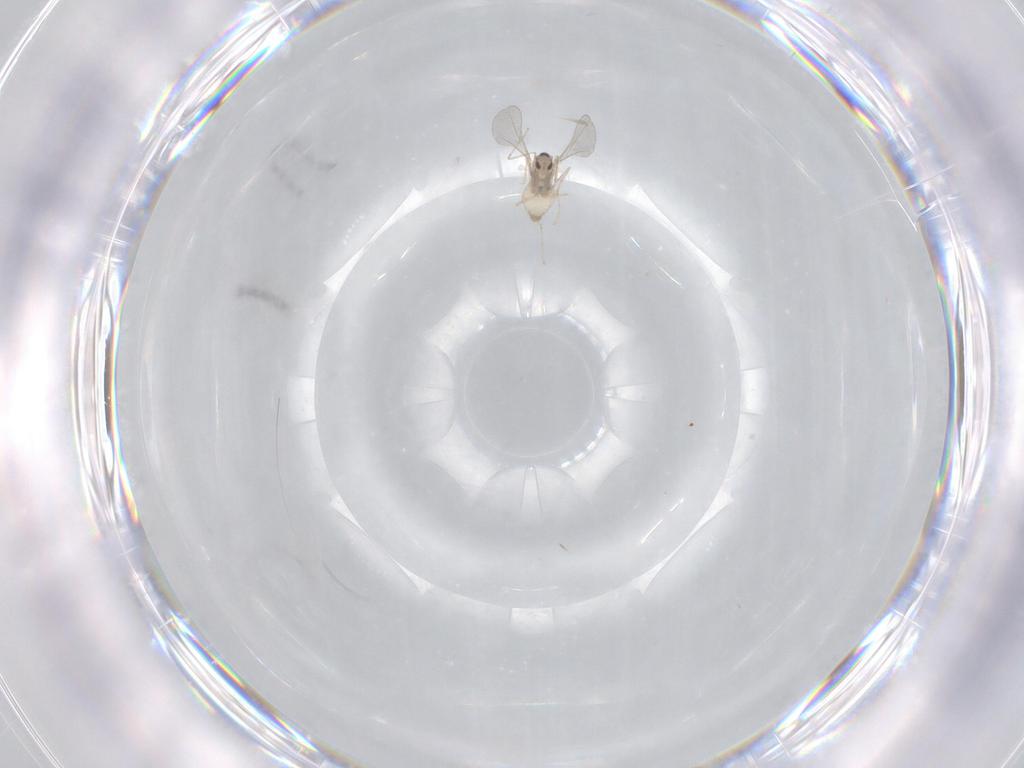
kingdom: Animalia
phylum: Arthropoda
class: Insecta
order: Diptera
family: Cecidomyiidae
